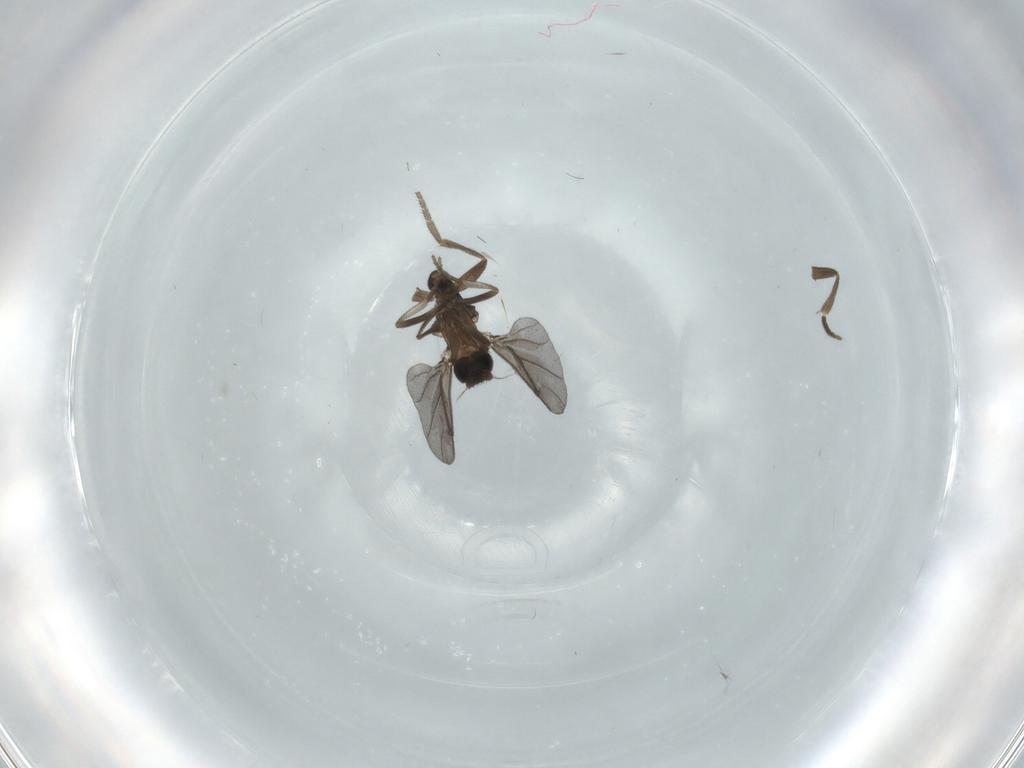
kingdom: Animalia
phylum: Arthropoda
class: Insecta
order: Diptera
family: Phoridae
